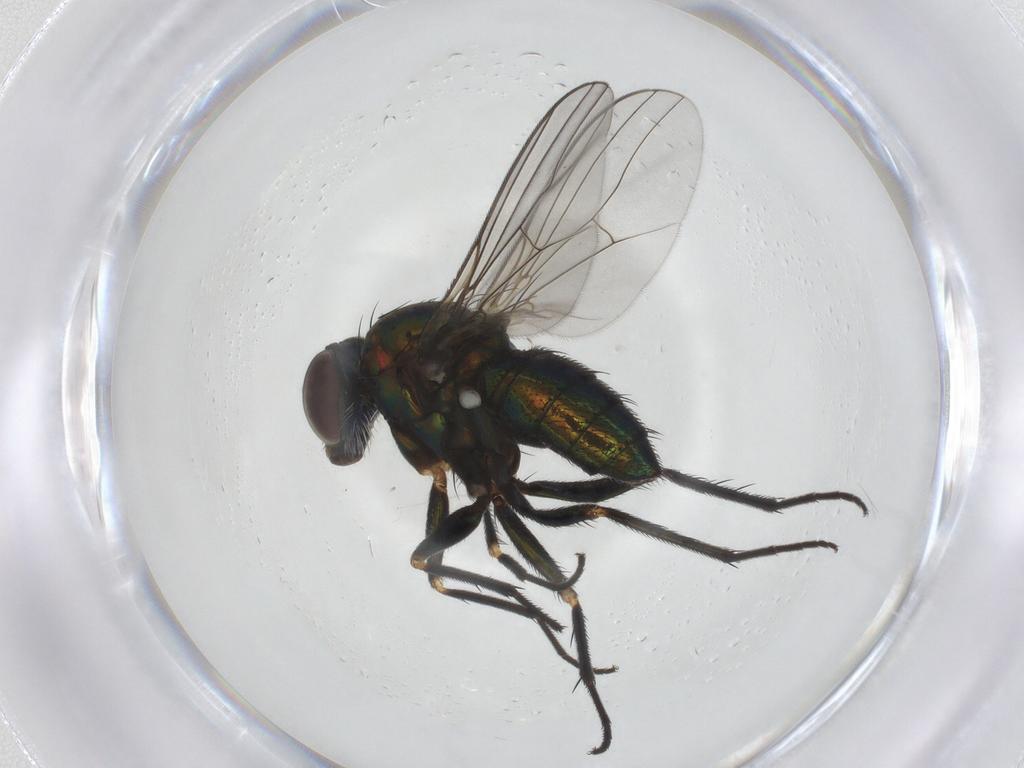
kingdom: Animalia
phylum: Arthropoda
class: Insecta
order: Diptera
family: Dolichopodidae
